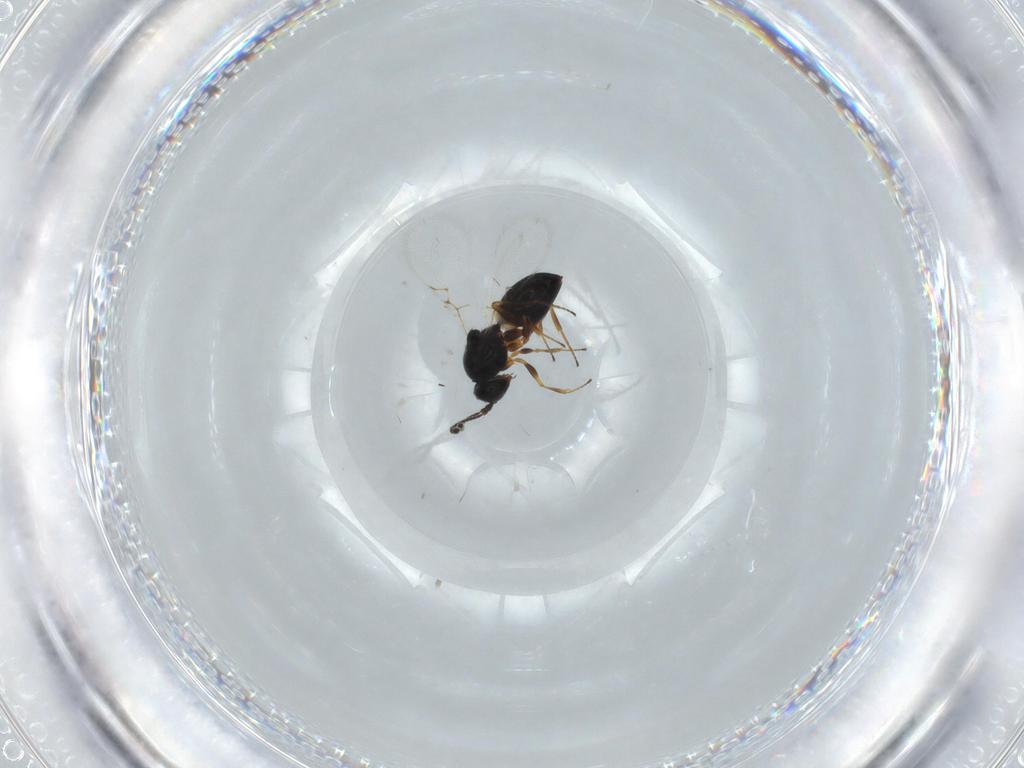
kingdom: Animalia
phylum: Arthropoda
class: Insecta
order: Hymenoptera
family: Figitidae
